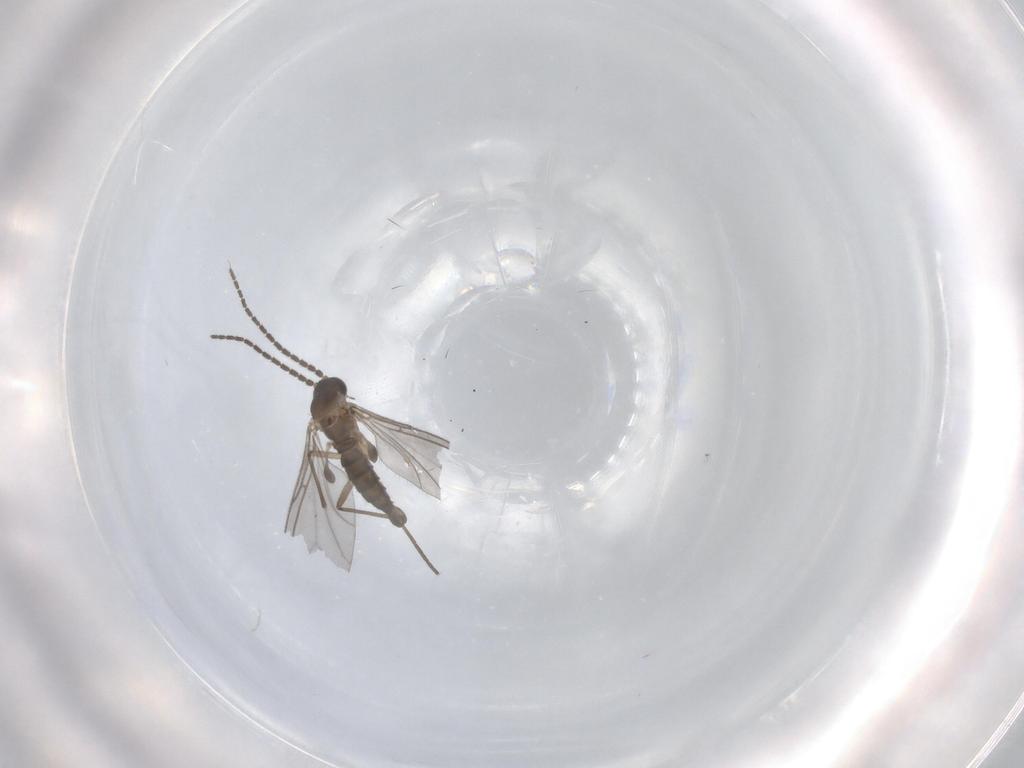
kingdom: Animalia
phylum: Arthropoda
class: Insecta
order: Diptera
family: Sciaridae
